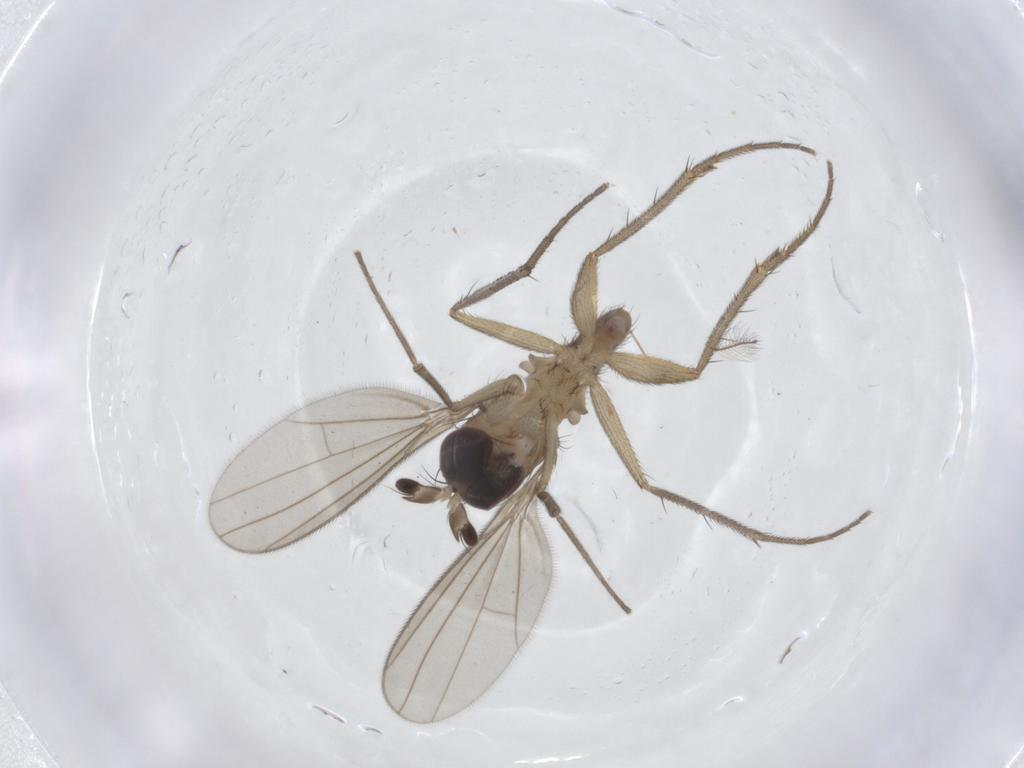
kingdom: Animalia
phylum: Arthropoda
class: Insecta
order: Diptera
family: Dolichopodidae
